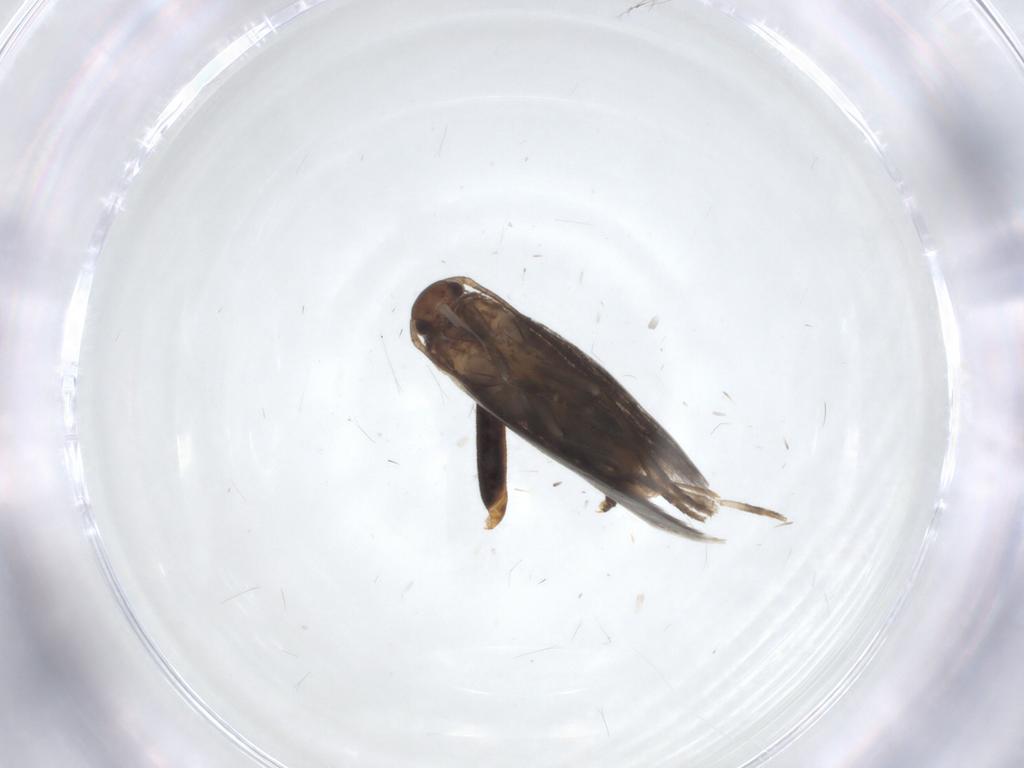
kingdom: Animalia
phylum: Arthropoda
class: Insecta
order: Lepidoptera
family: Elachistidae
